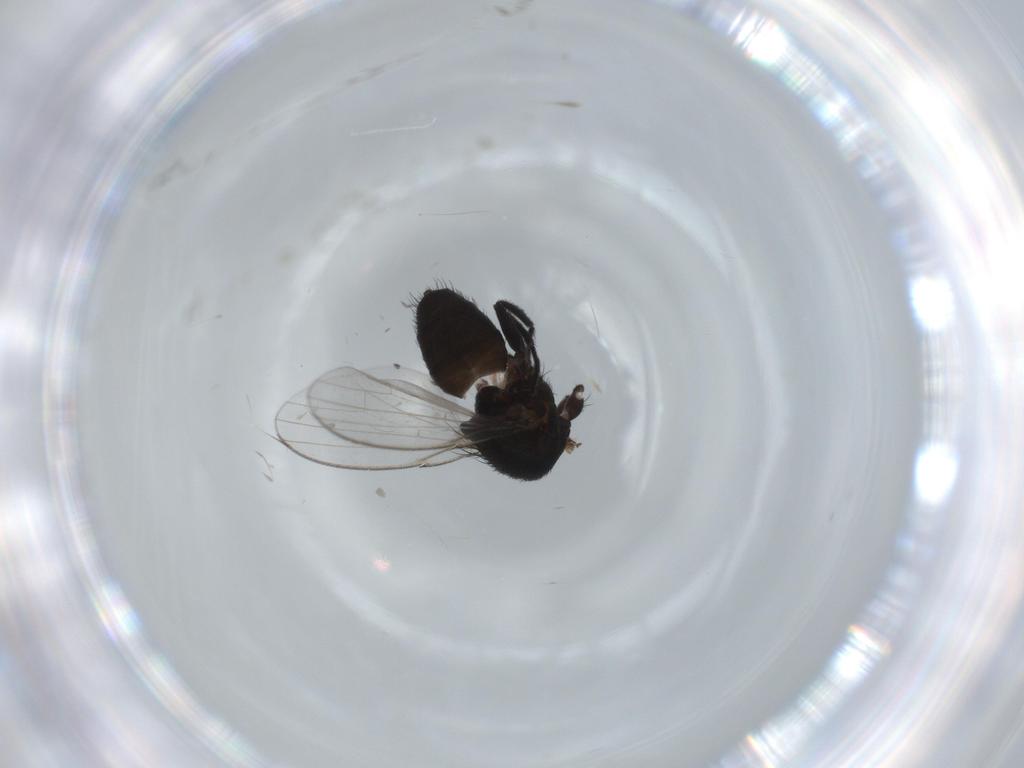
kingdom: Animalia
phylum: Arthropoda
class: Insecta
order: Diptera
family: Milichiidae
